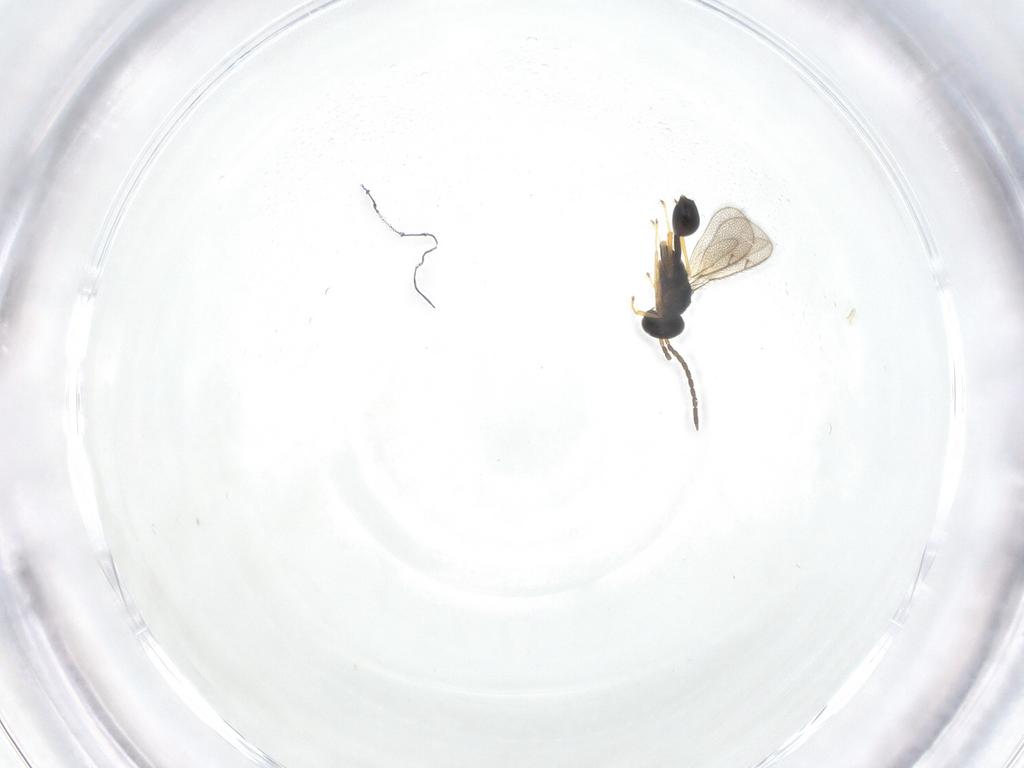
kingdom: Animalia
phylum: Arthropoda
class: Insecta
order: Hymenoptera
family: Diparidae
